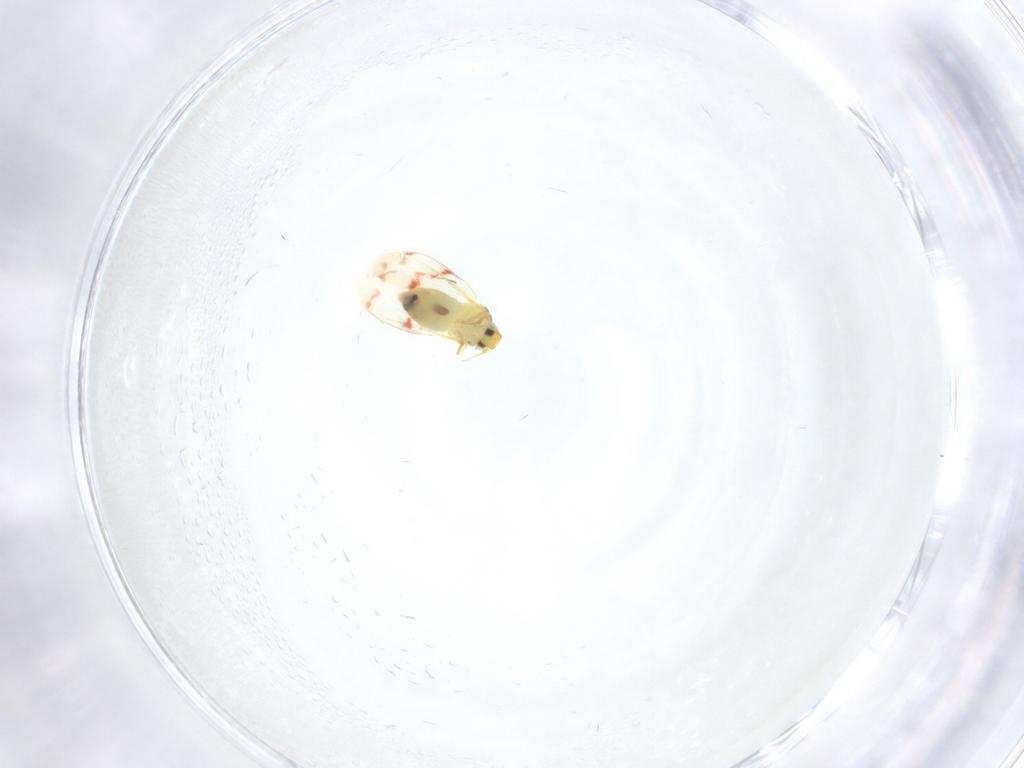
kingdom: Animalia
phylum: Arthropoda
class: Insecta
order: Hemiptera
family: Aleyrodidae
